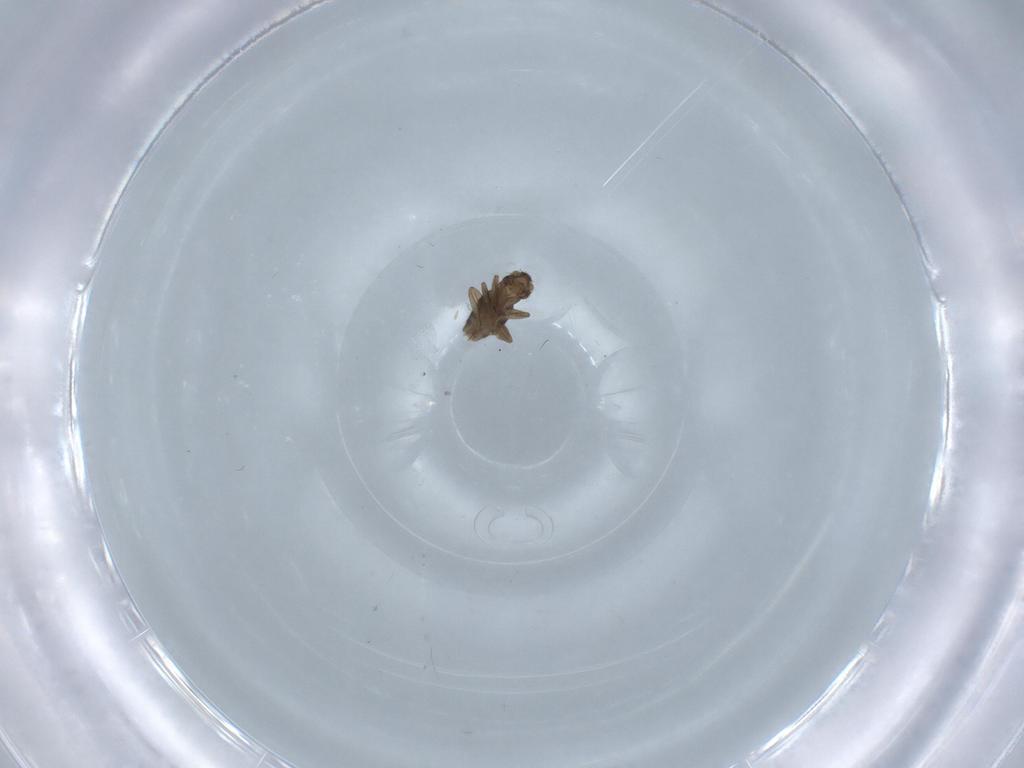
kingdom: Animalia
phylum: Arthropoda
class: Insecta
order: Diptera
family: Phoridae
